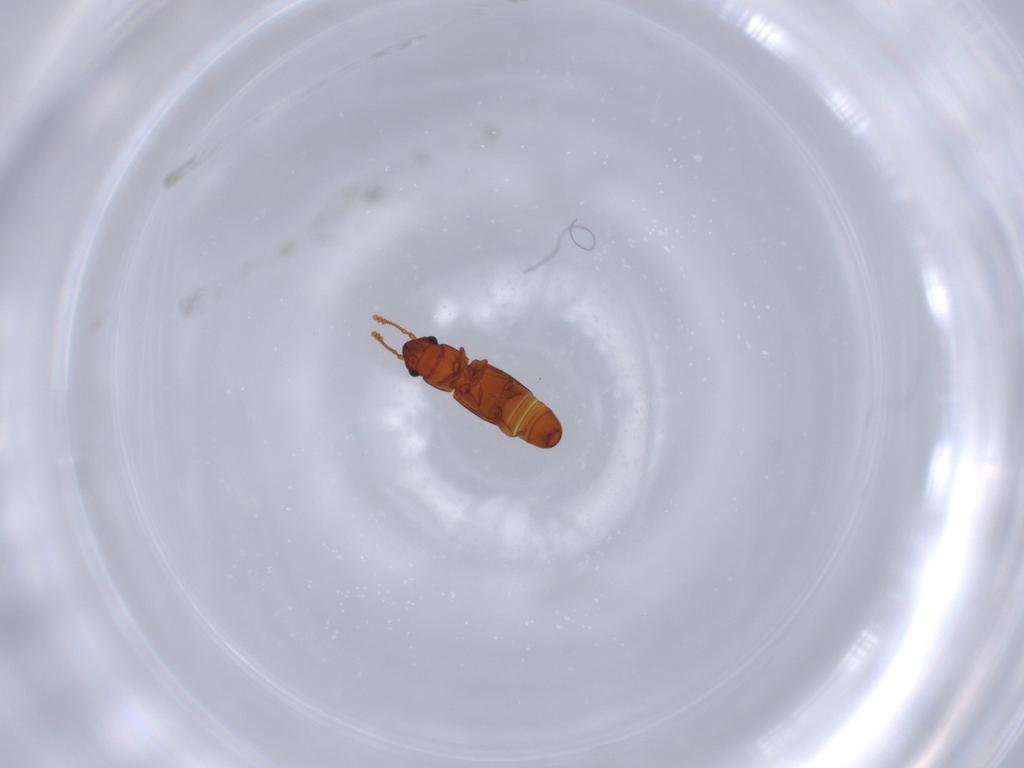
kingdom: Animalia
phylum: Arthropoda
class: Insecta
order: Coleoptera
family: Smicripidae
